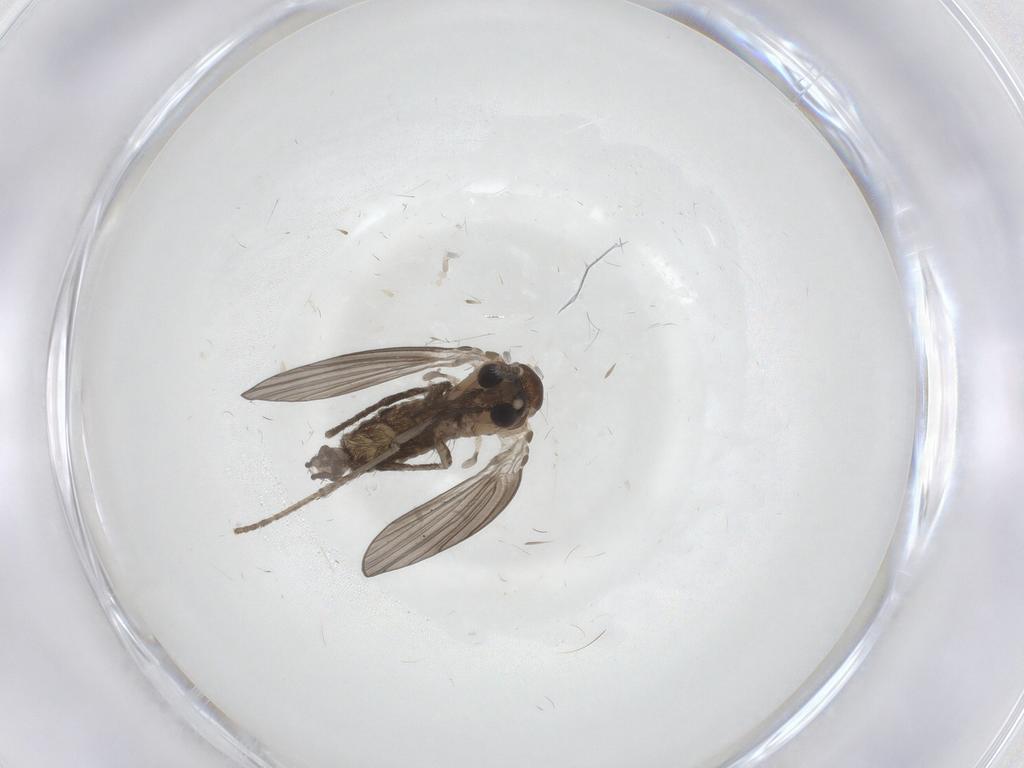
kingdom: Animalia
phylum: Arthropoda
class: Insecta
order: Diptera
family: Psychodidae
